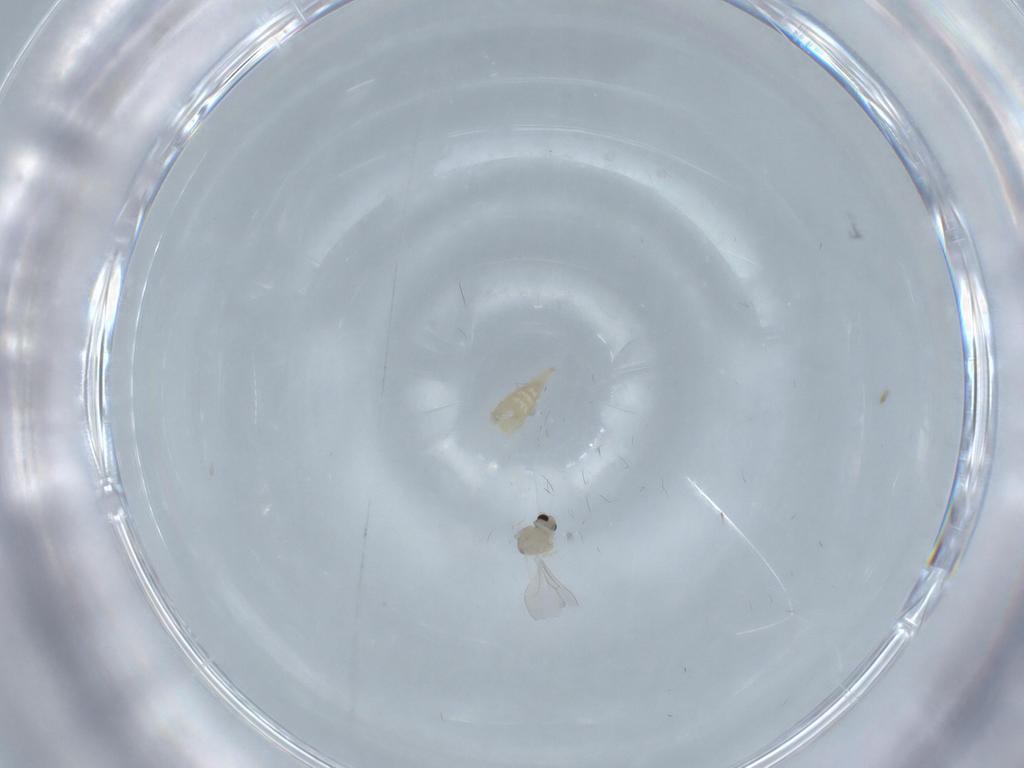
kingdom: Animalia
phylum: Arthropoda
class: Insecta
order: Diptera
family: Cecidomyiidae
